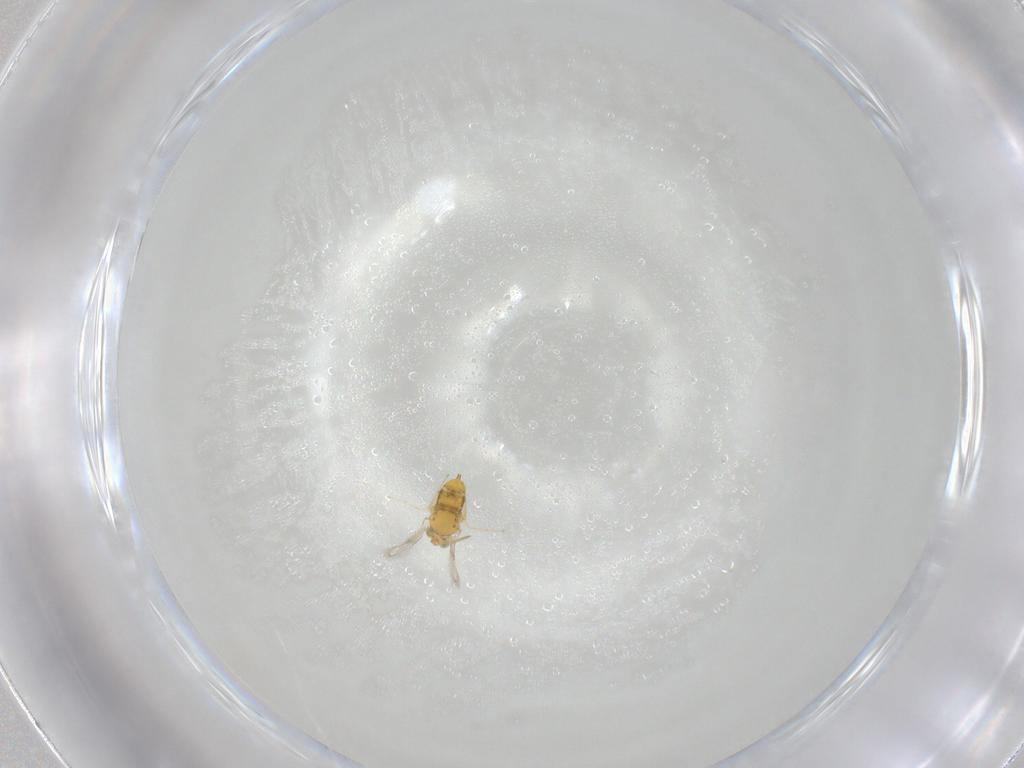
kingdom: Animalia
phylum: Arthropoda
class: Insecta
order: Hymenoptera
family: Aphelinidae
